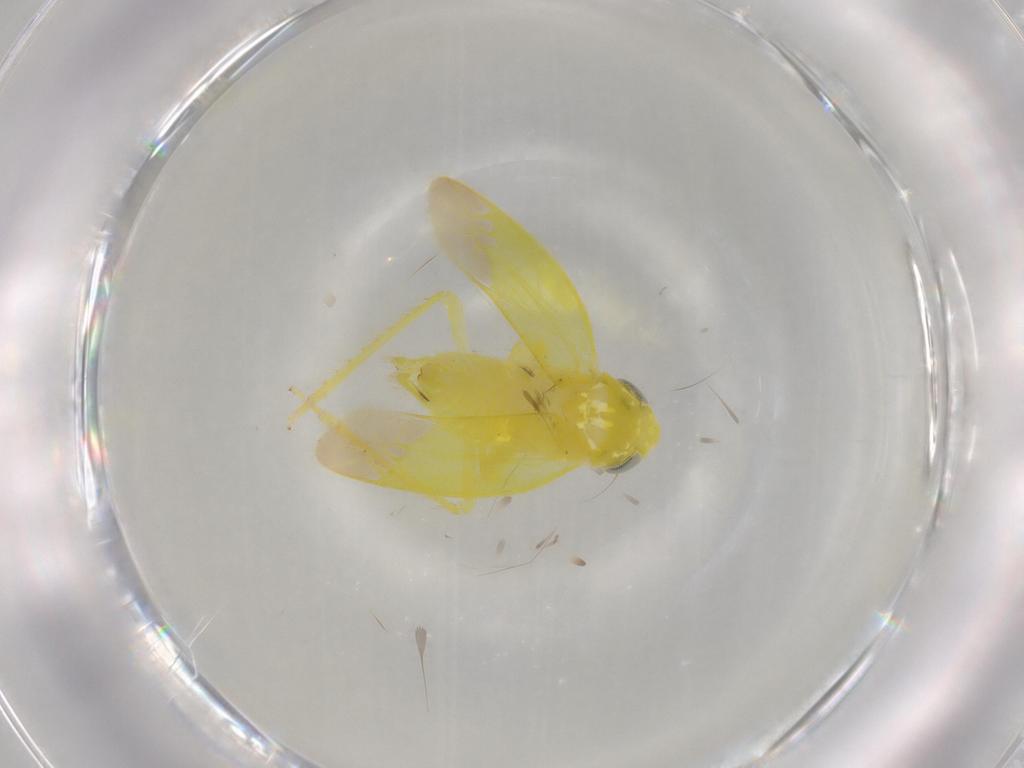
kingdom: Animalia
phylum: Arthropoda
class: Insecta
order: Hemiptera
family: Cicadellidae
